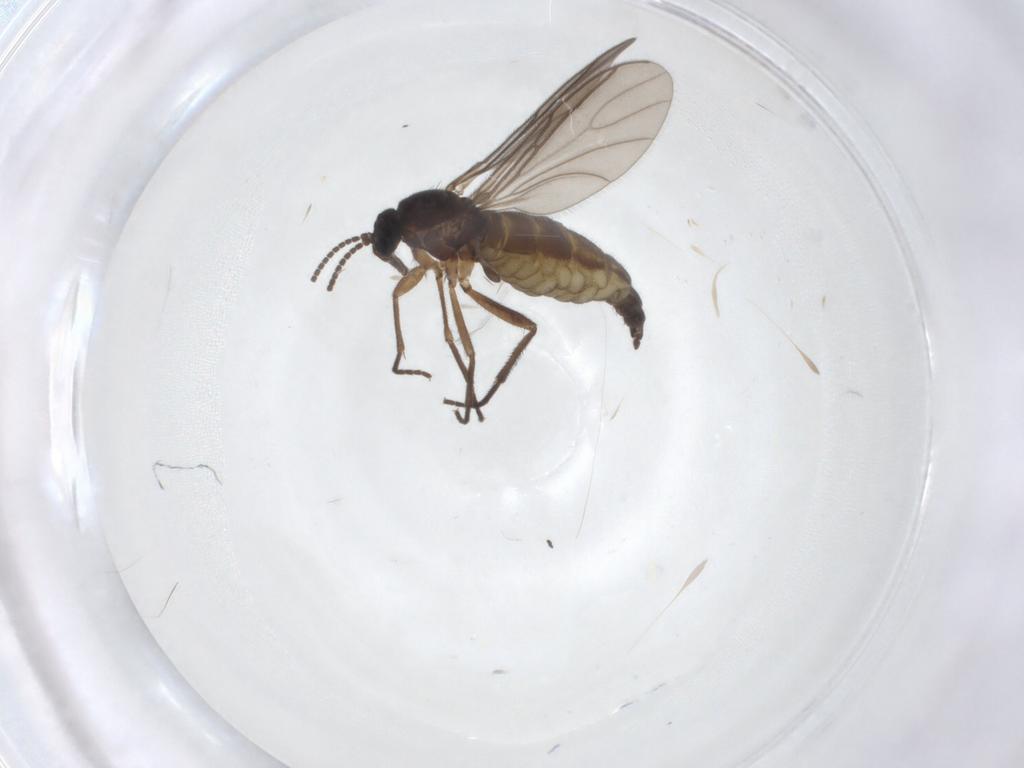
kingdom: Animalia
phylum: Arthropoda
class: Insecta
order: Diptera
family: Sciaridae
